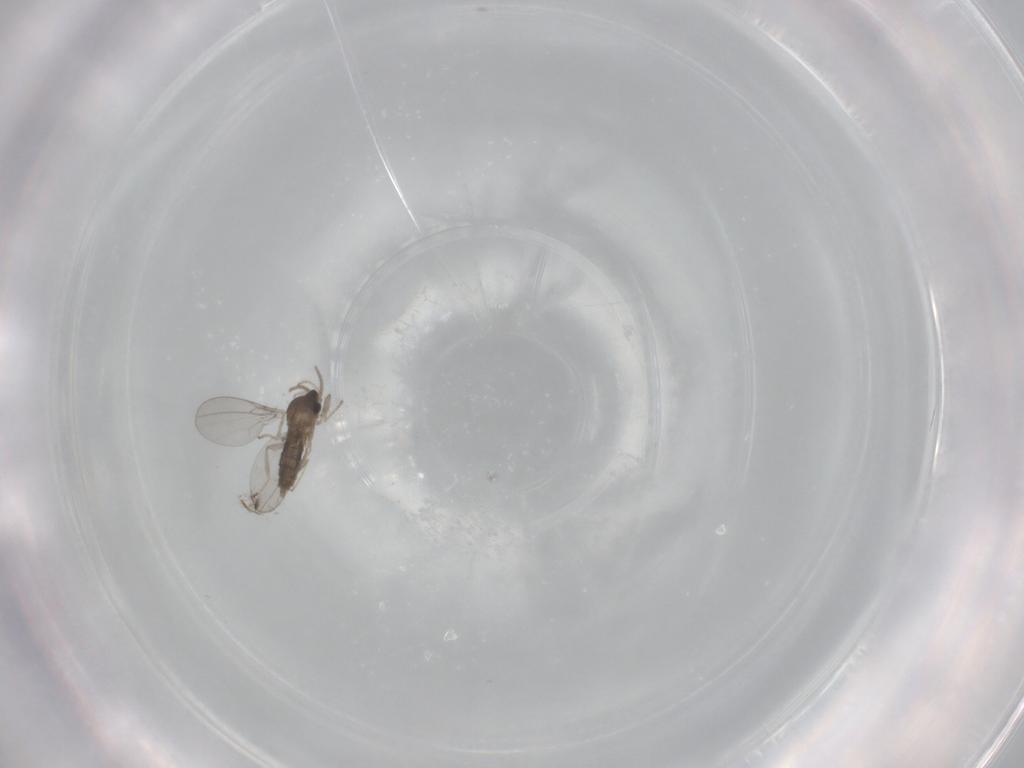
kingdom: Animalia
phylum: Arthropoda
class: Insecta
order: Diptera
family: Cecidomyiidae
